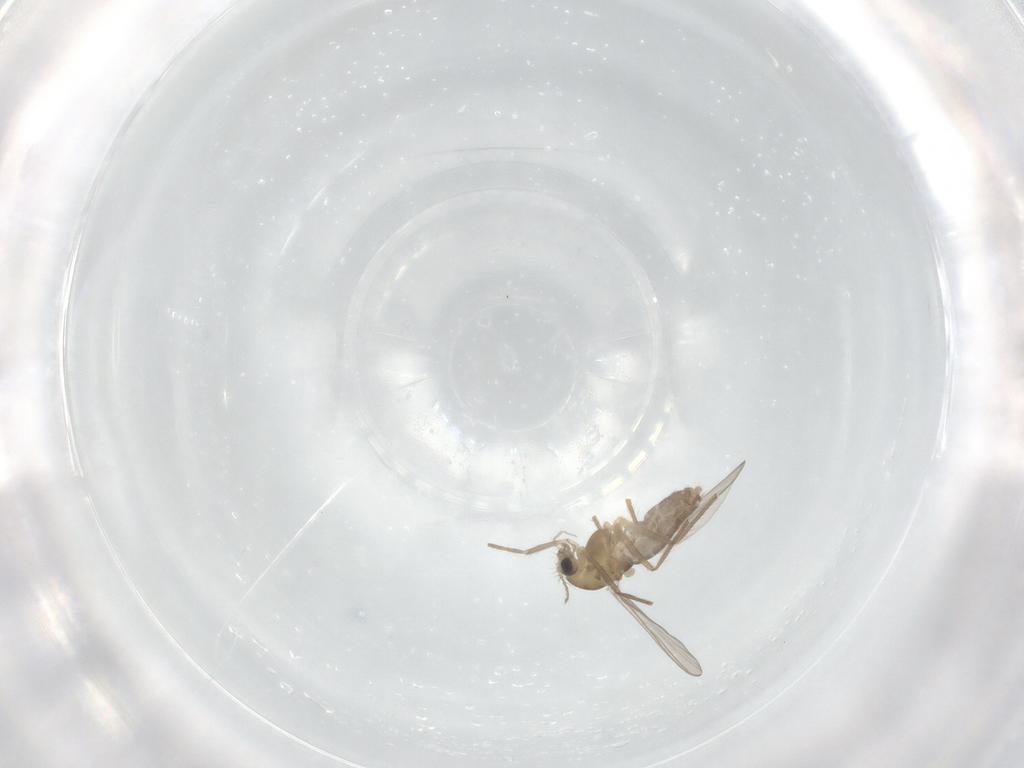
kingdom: Animalia
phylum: Arthropoda
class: Insecta
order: Diptera
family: Chironomidae
